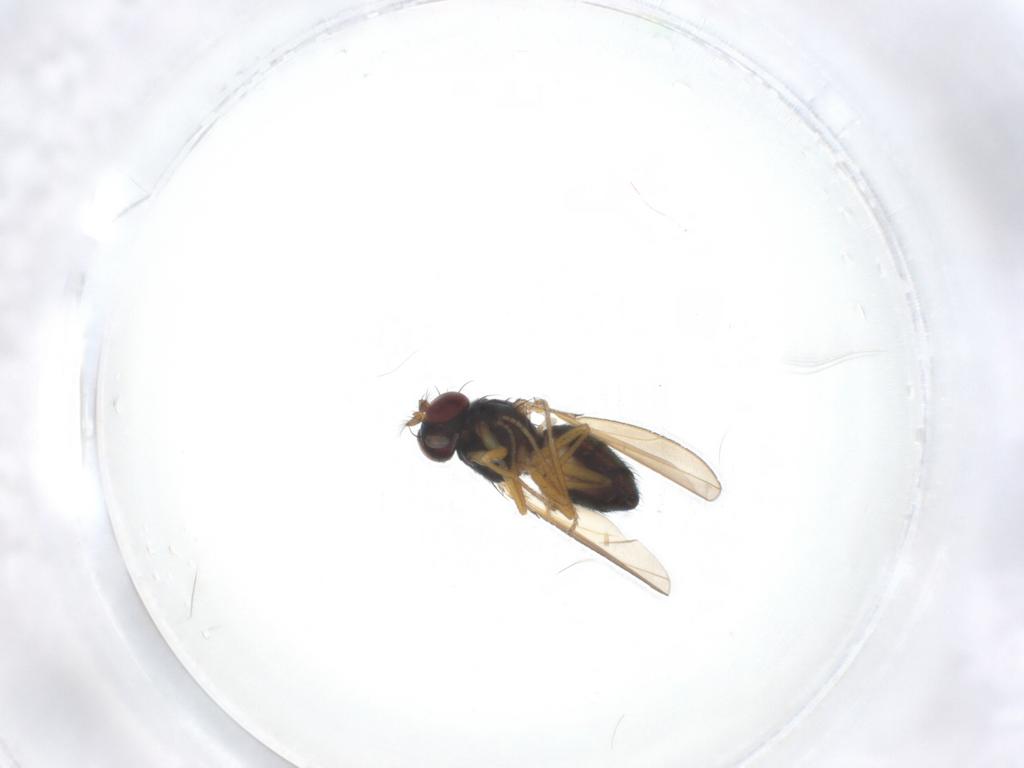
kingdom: Animalia
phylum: Arthropoda
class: Insecta
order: Diptera
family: Ephydridae
